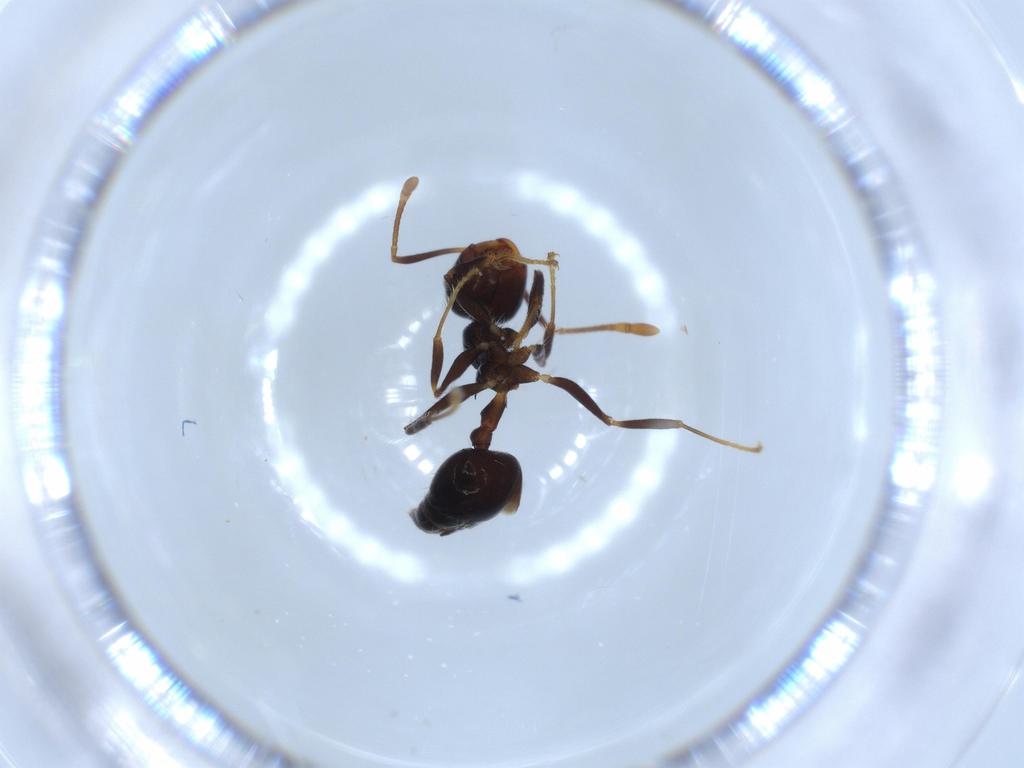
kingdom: Animalia
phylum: Arthropoda
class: Insecta
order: Hymenoptera
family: Formicidae
